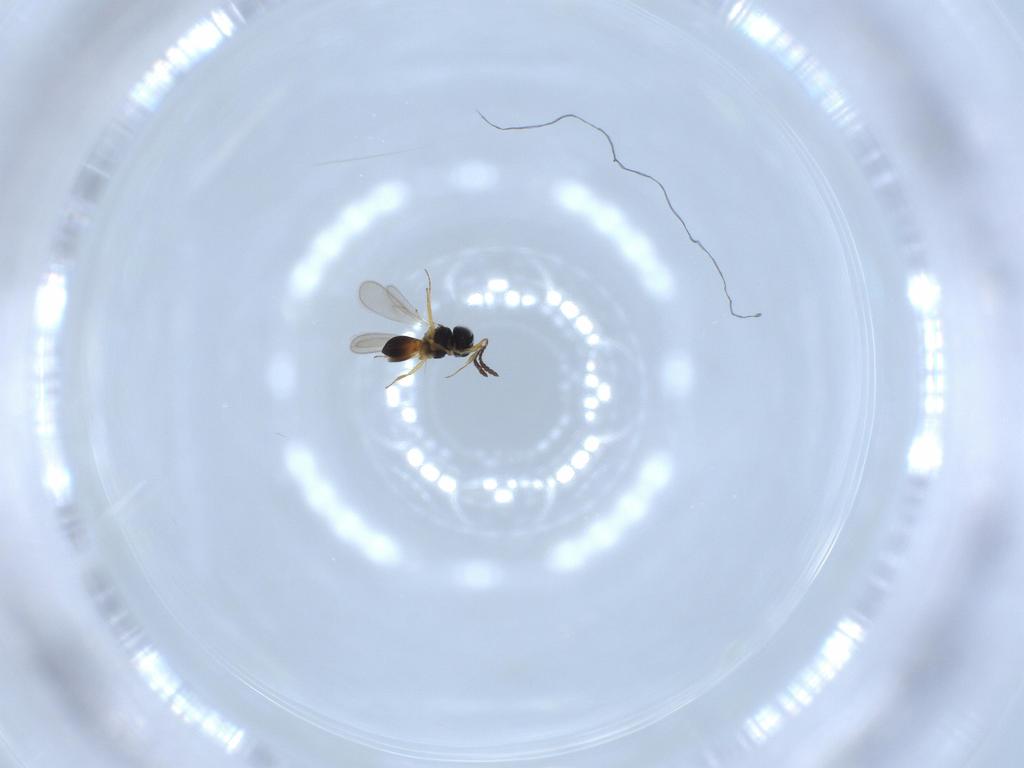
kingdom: Animalia
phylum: Arthropoda
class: Insecta
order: Hymenoptera
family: Scelionidae
